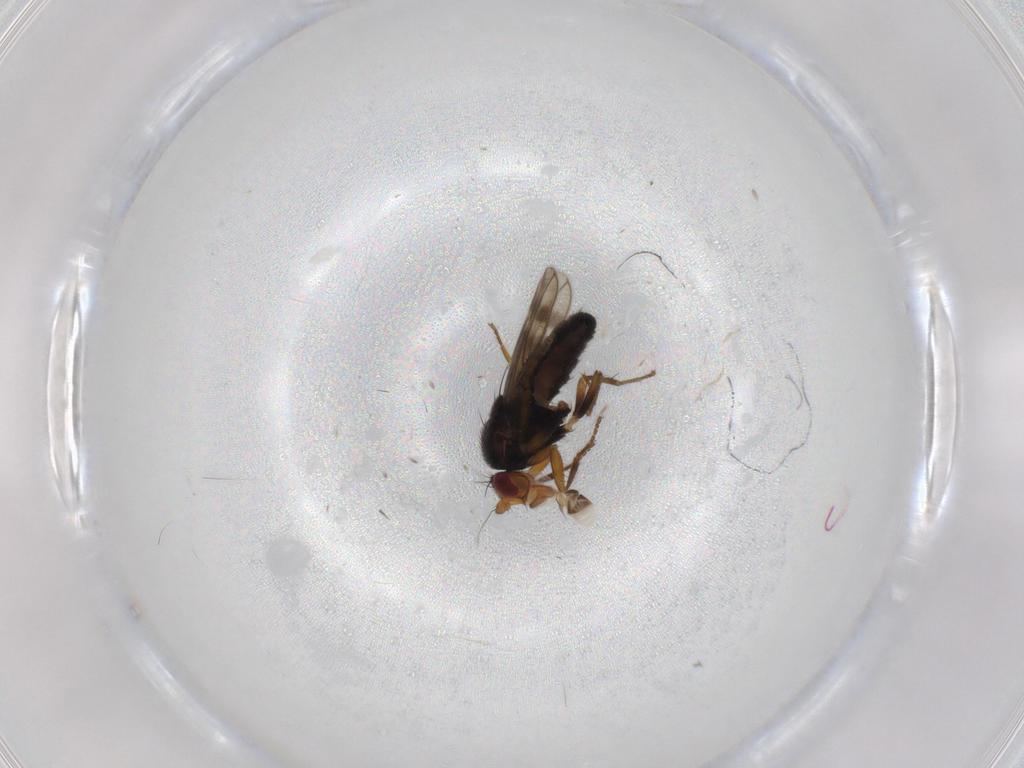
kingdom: Animalia
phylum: Arthropoda
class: Insecta
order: Diptera
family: Sphaeroceridae
